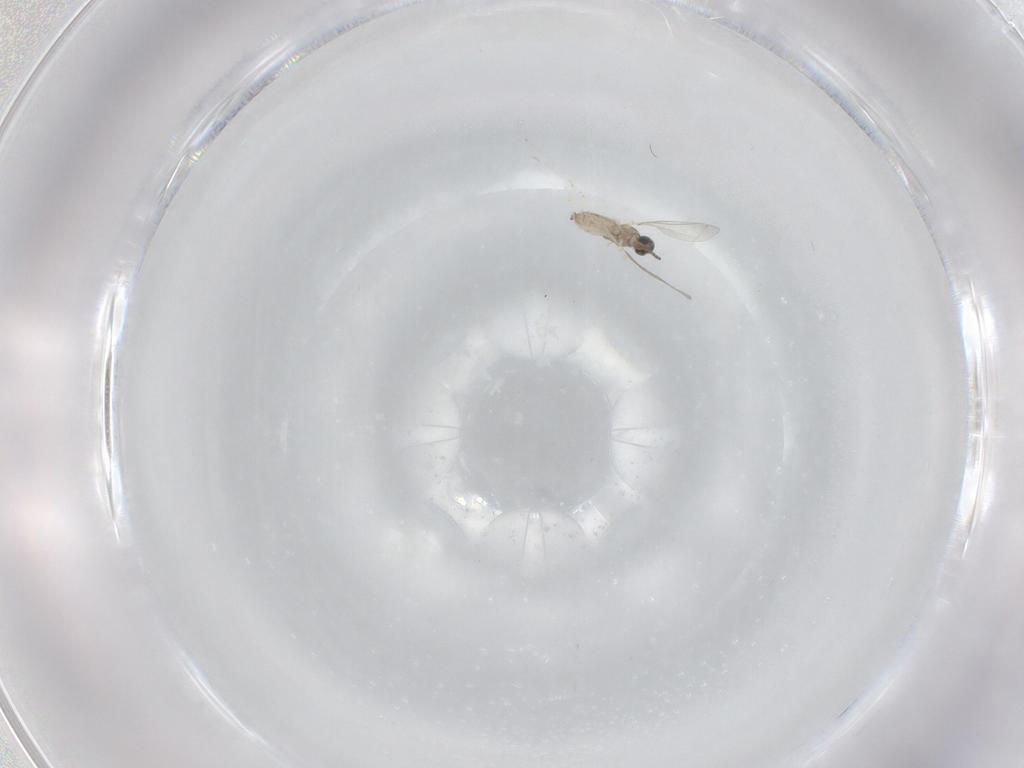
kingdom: Animalia
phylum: Arthropoda
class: Insecta
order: Diptera
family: Cecidomyiidae
